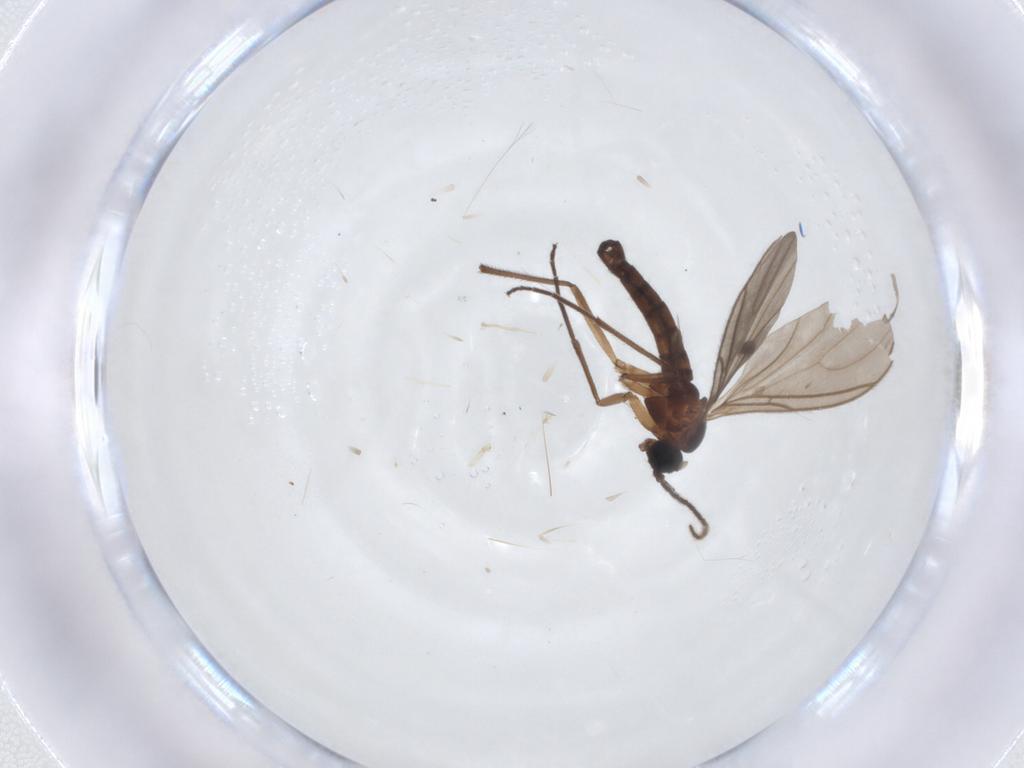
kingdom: Animalia
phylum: Arthropoda
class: Insecta
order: Diptera
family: Sciaridae
